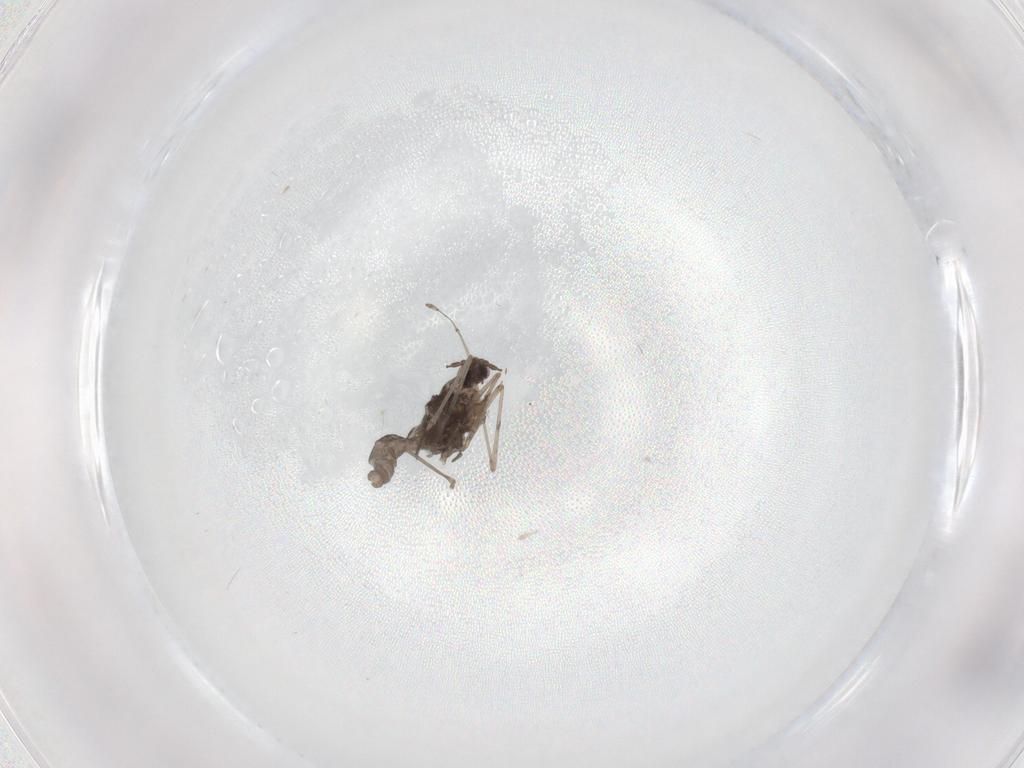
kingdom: Animalia
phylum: Arthropoda
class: Insecta
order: Diptera
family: Cecidomyiidae
